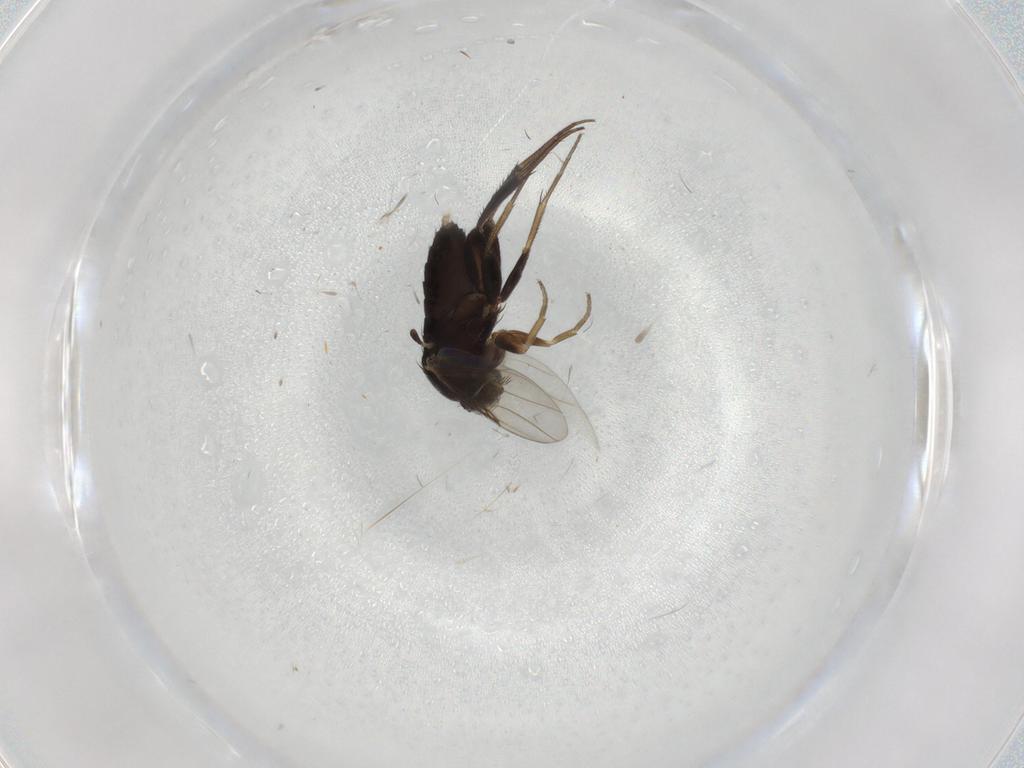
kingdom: Animalia
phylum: Arthropoda
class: Insecta
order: Diptera
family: Phoridae
